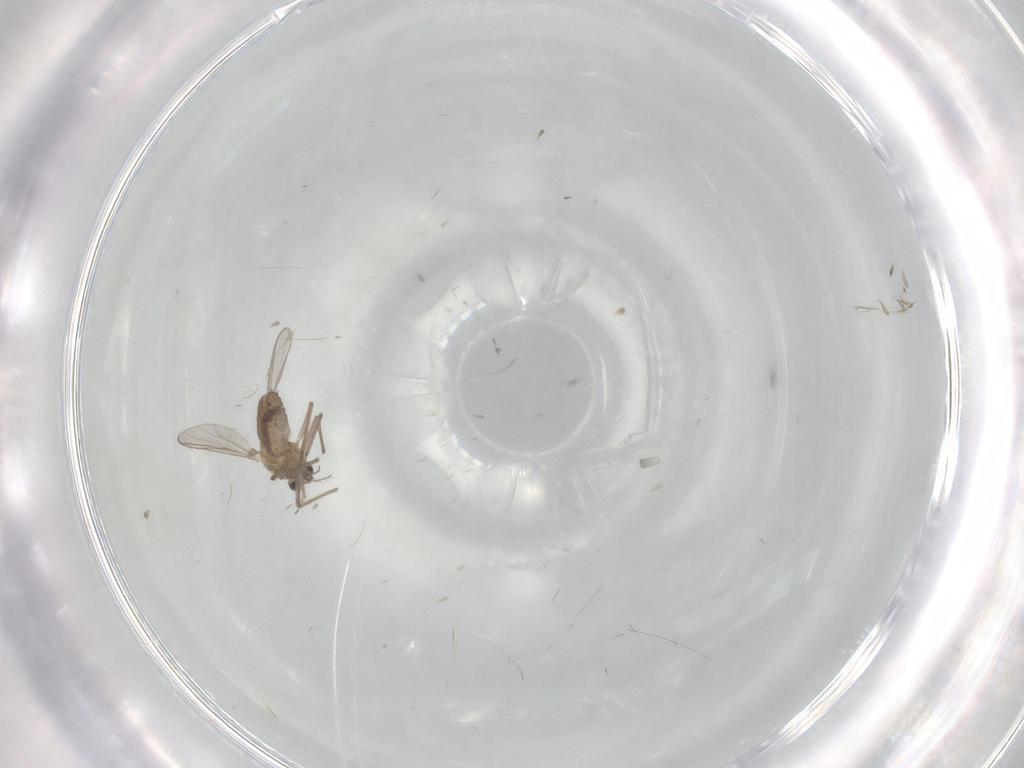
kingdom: Animalia
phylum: Arthropoda
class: Insecta
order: Diptera
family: Chironomidae
